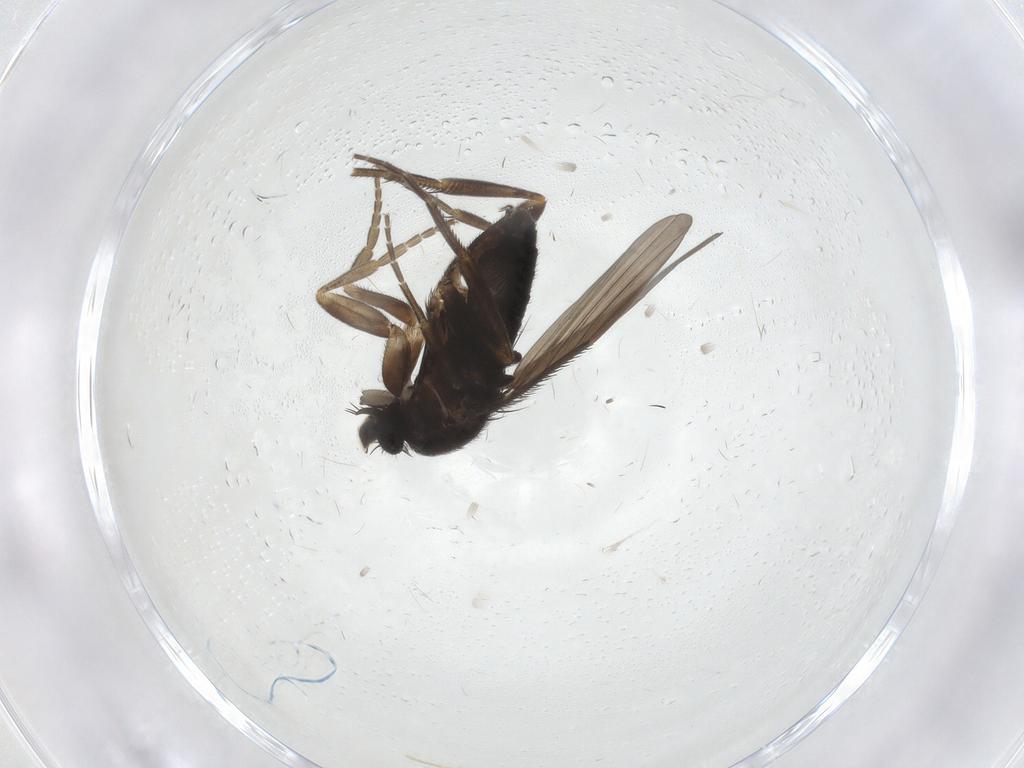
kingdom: Animalia
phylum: Arthropoda
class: Insecta
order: Diptera
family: Phoridae
